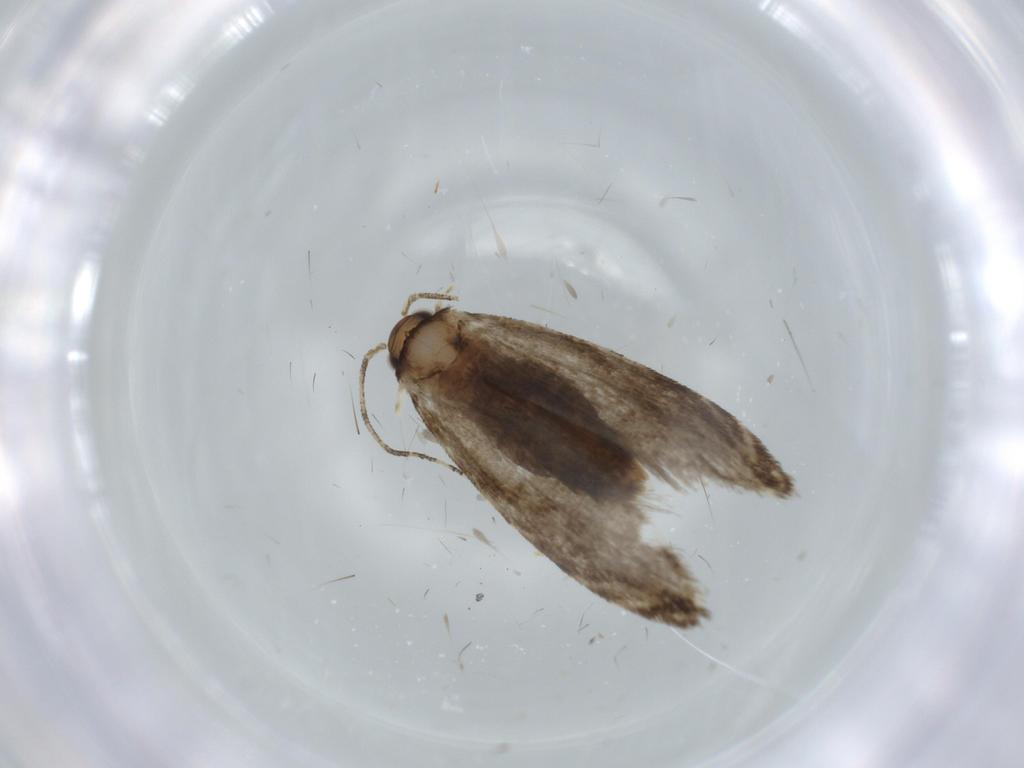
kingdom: Animalia
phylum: Arthropoda
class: Insecta
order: Lepidoptera
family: Tineidae
